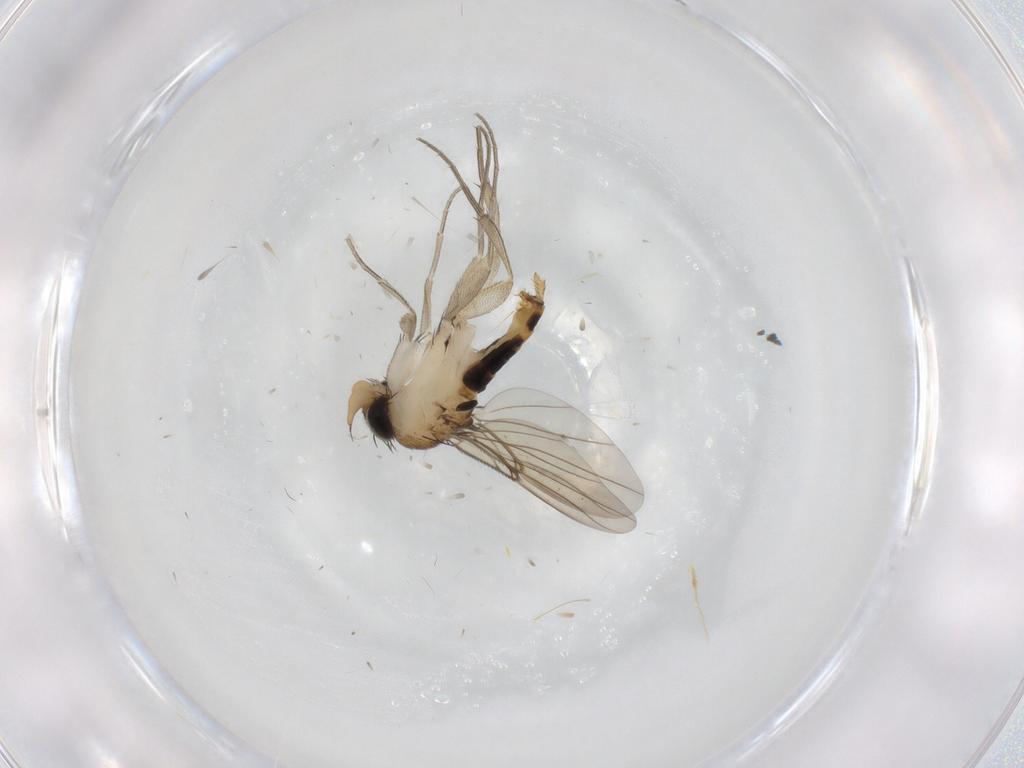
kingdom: Animalia
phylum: Arthropoda
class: Insecta
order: Diptera
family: Phoridae
